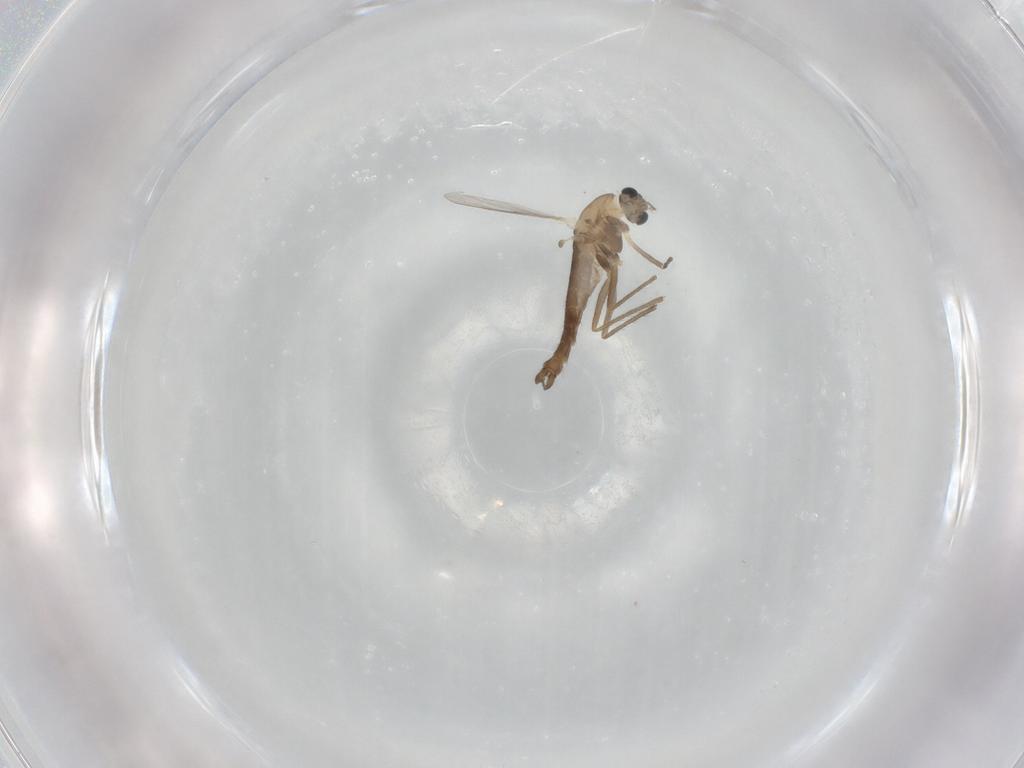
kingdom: Animalia
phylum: Arthropoda
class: Insecta
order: Diptera
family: Chironomidae
